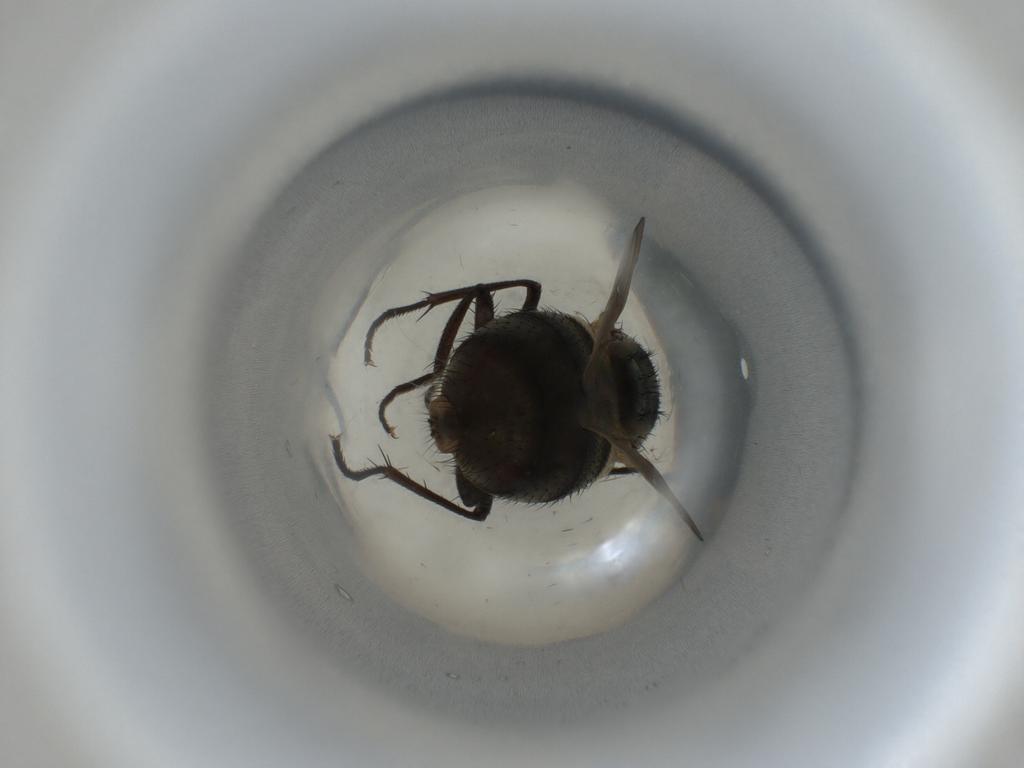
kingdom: Animalia
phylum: Arthropoda
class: Insecta
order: Diptera
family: Muscidae
